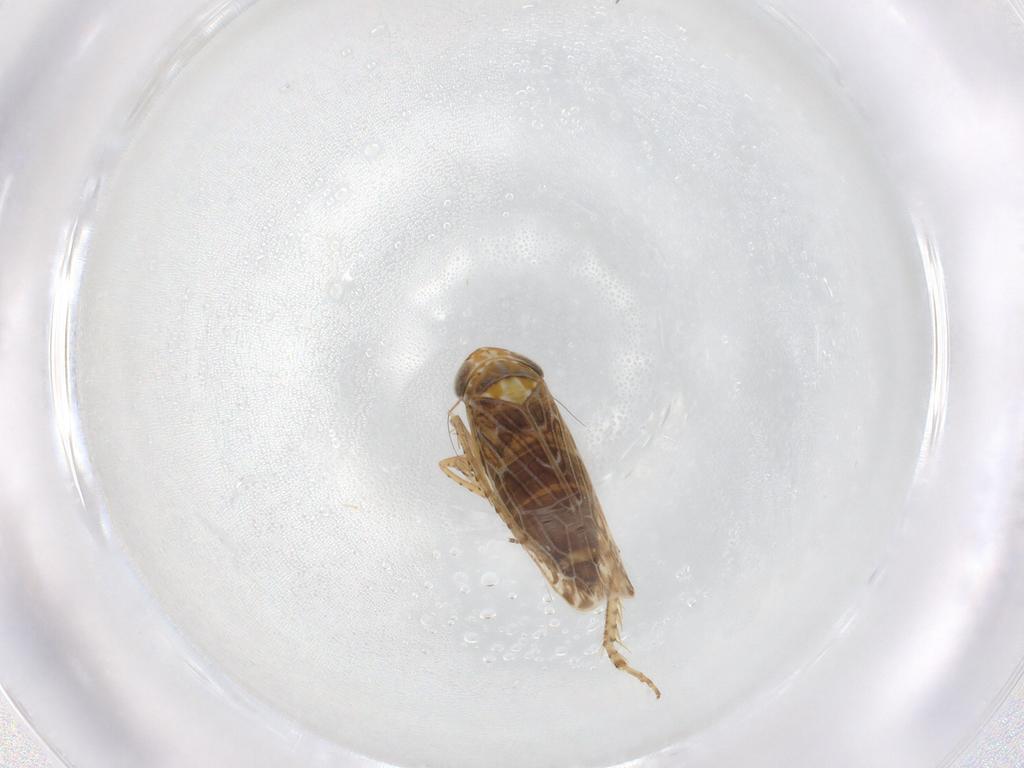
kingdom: Animalia
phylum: Arthropoda
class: Insecta
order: Hemiptera
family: Cicadellidae
